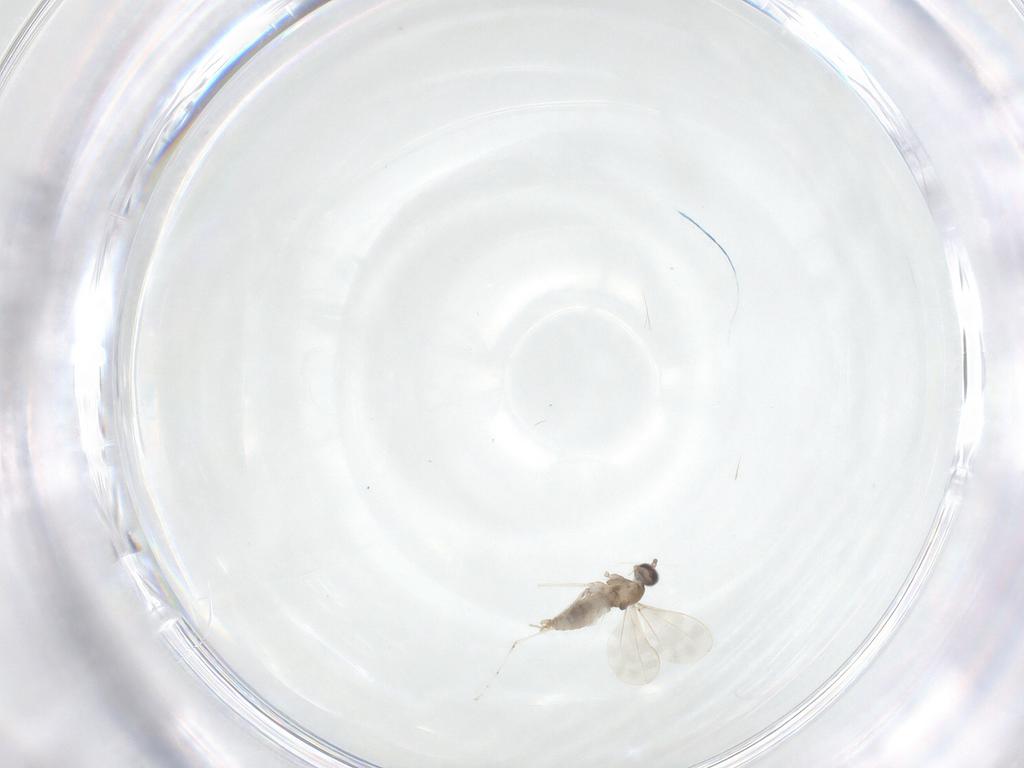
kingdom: Animalia
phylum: Arthropoda
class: Insecta
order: Diptera
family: Cecidomyiidae
